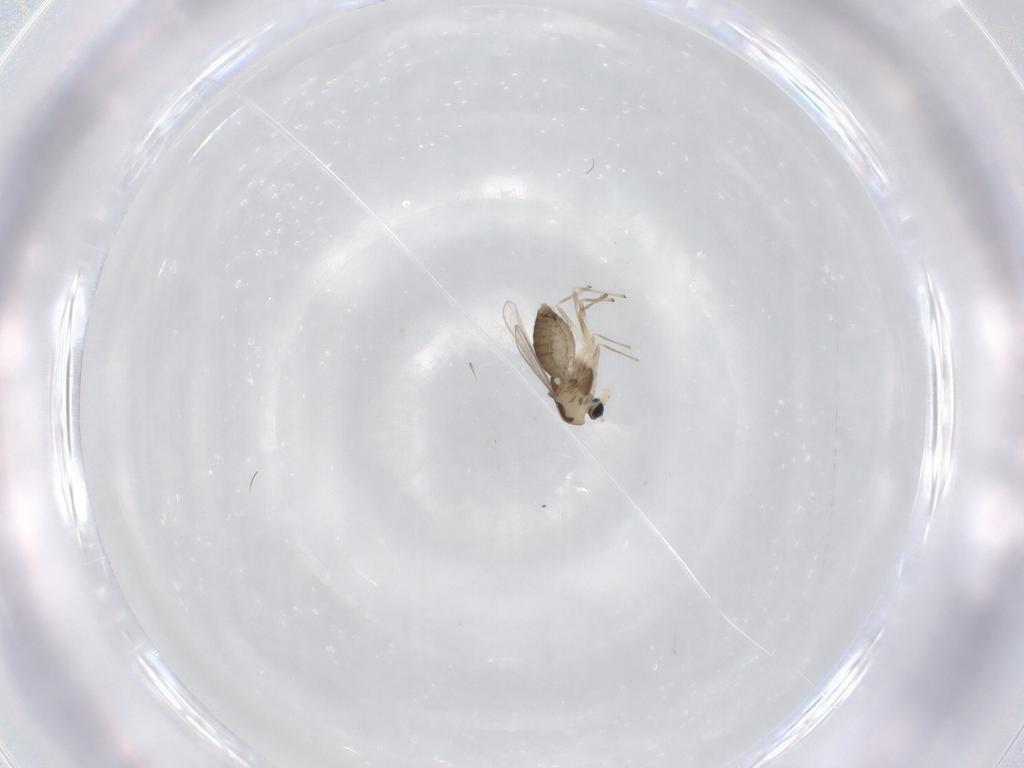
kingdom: Animalia
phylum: Arthropoda
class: Insecta
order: Diptera
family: Chironomidae
